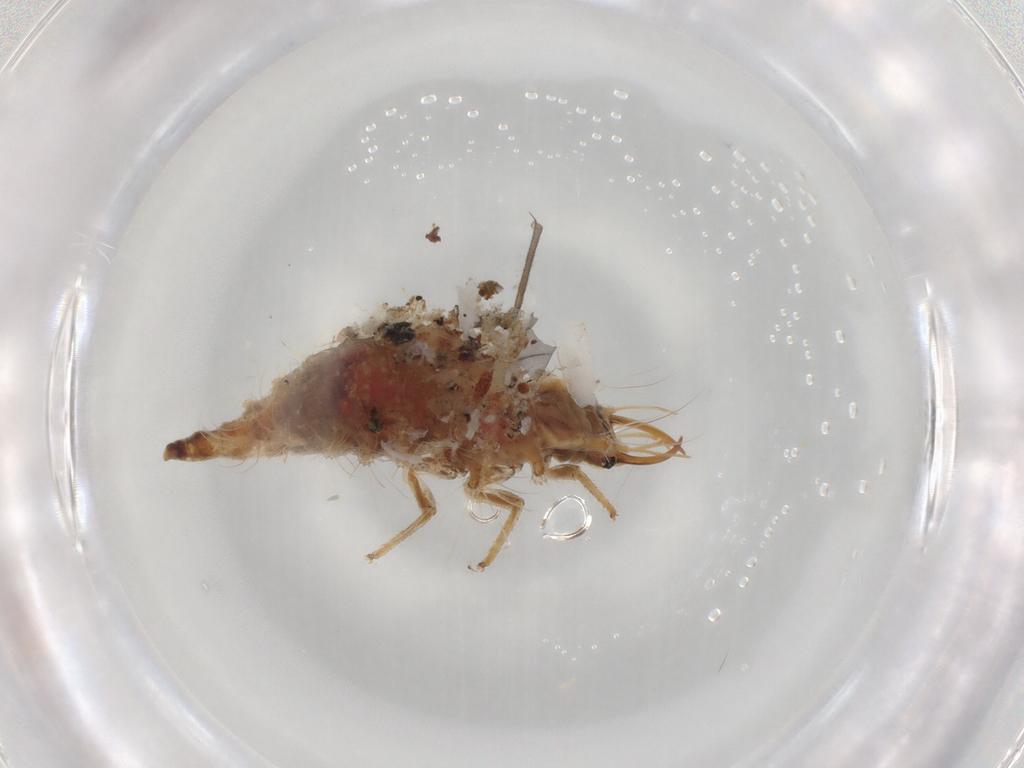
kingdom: Animalia
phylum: Arthropoda
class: Insecta
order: Neuroptera
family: Chrysopidae
